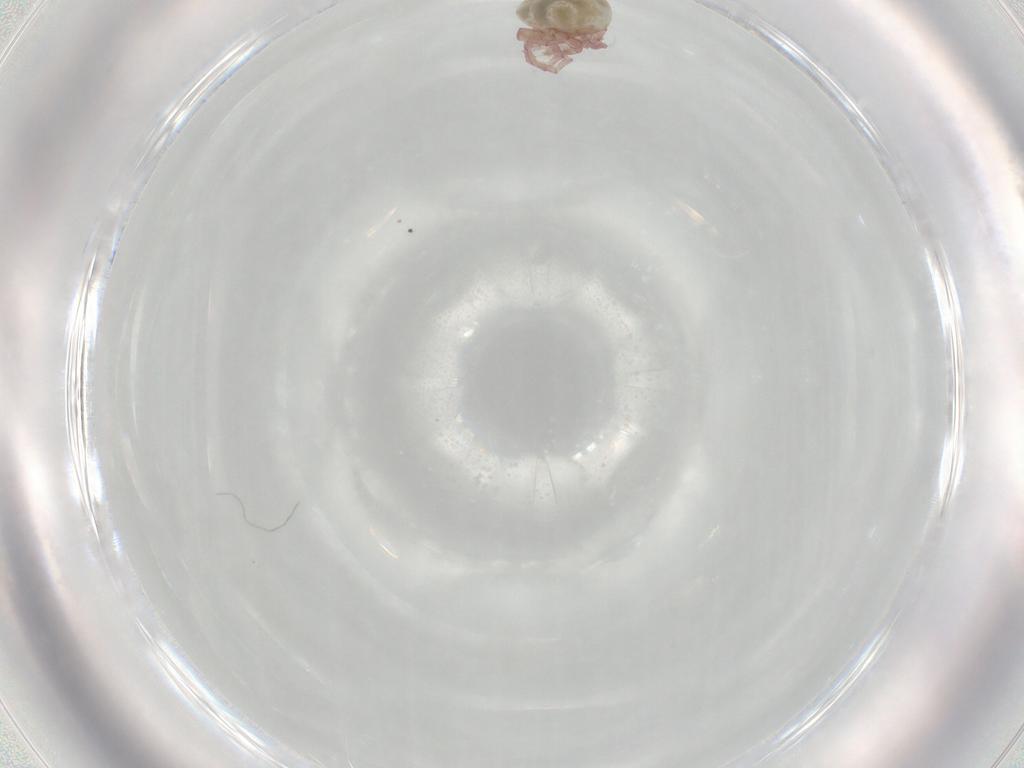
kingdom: Animalia
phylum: Arthropoda
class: Arachnida
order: Trombidiformes
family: Pionidae
